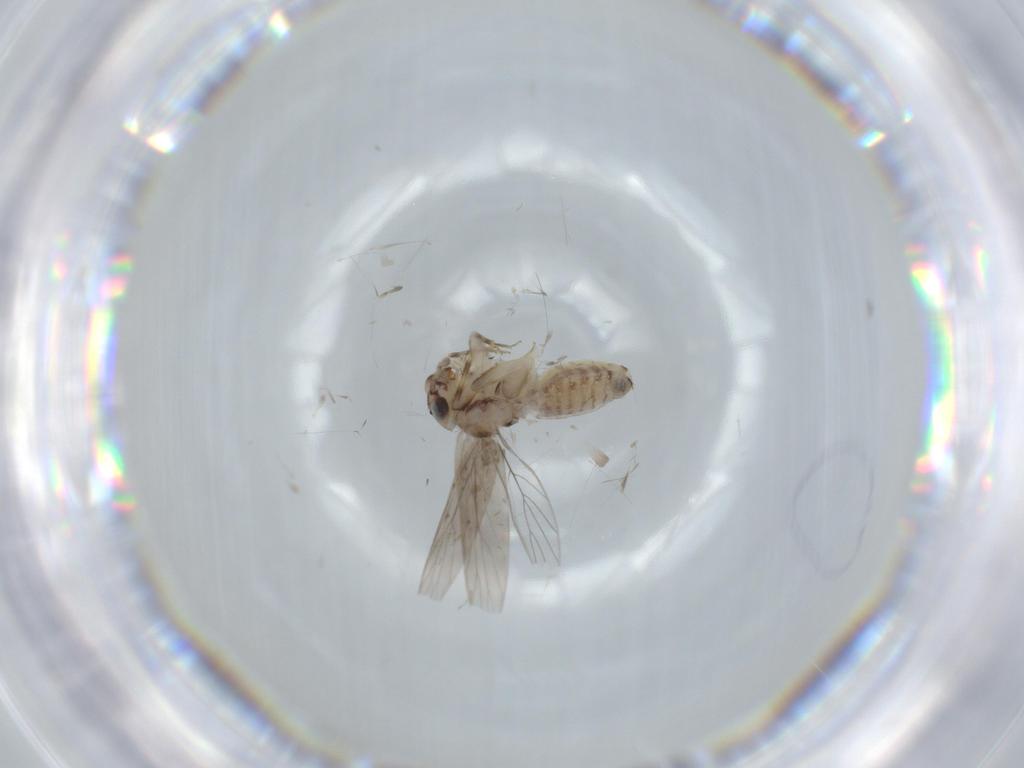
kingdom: Animalia
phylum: Arthropoda
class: Insecta
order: Psocodea
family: Lepidopsocidae
